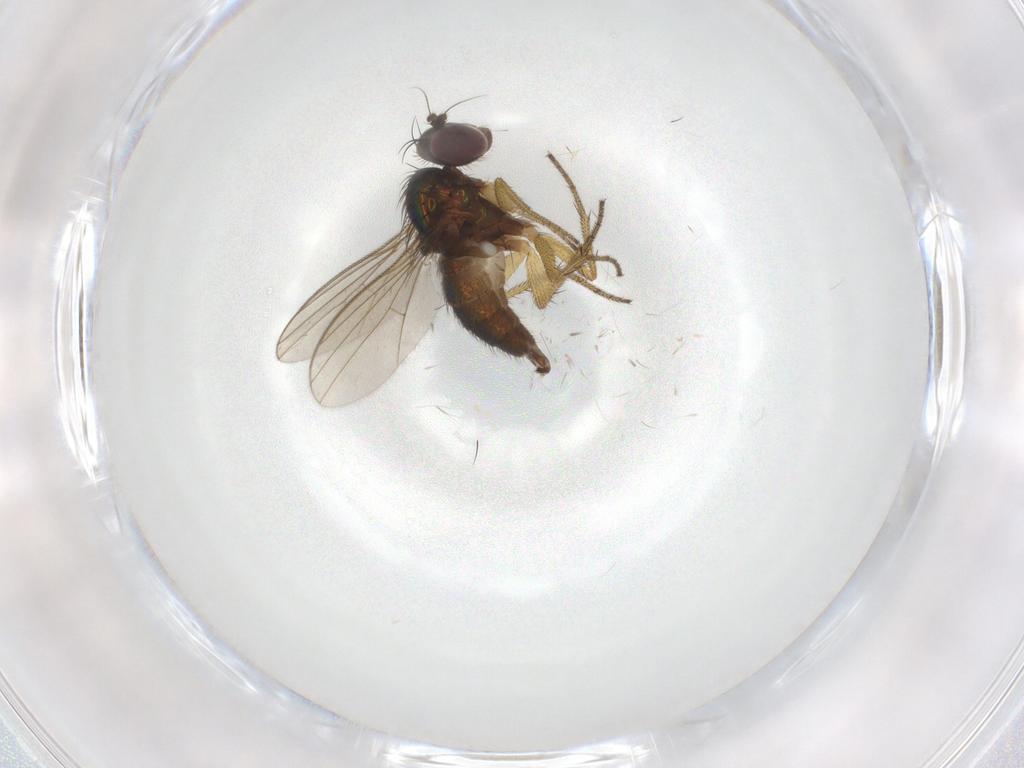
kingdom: Animalia
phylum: Arthropoda
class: Insecta
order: Diptera
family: Dolichopodidae
